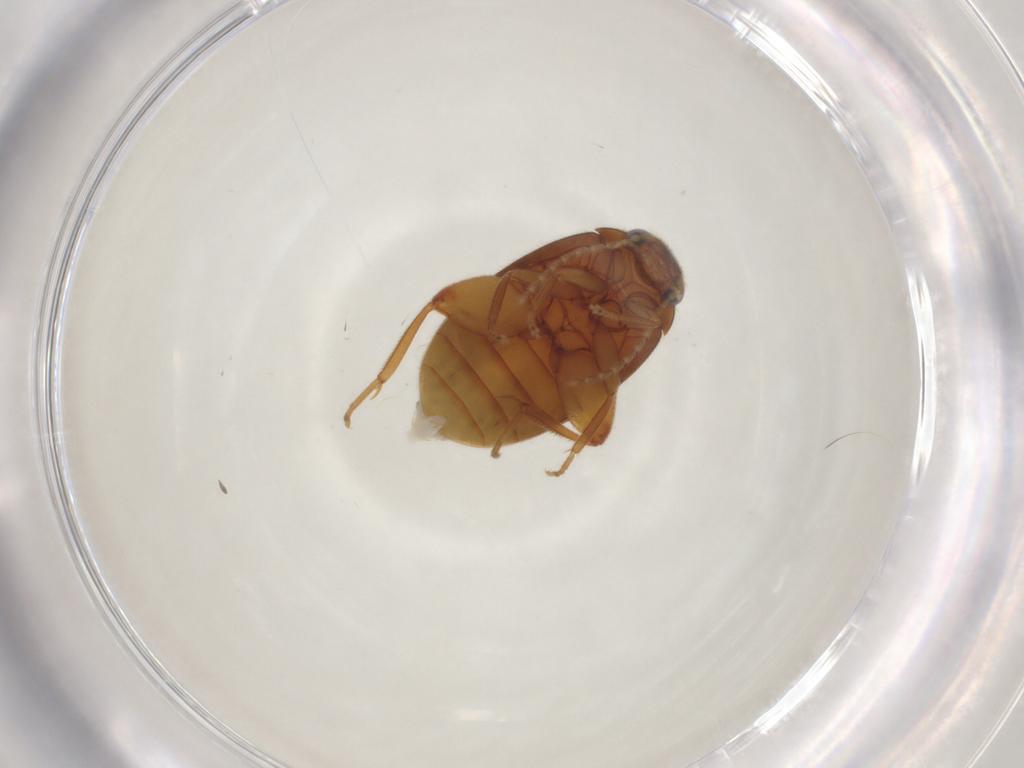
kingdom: Animalia
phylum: Arthropoda
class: Insecta
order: Coleoptera
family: Scirtidae
